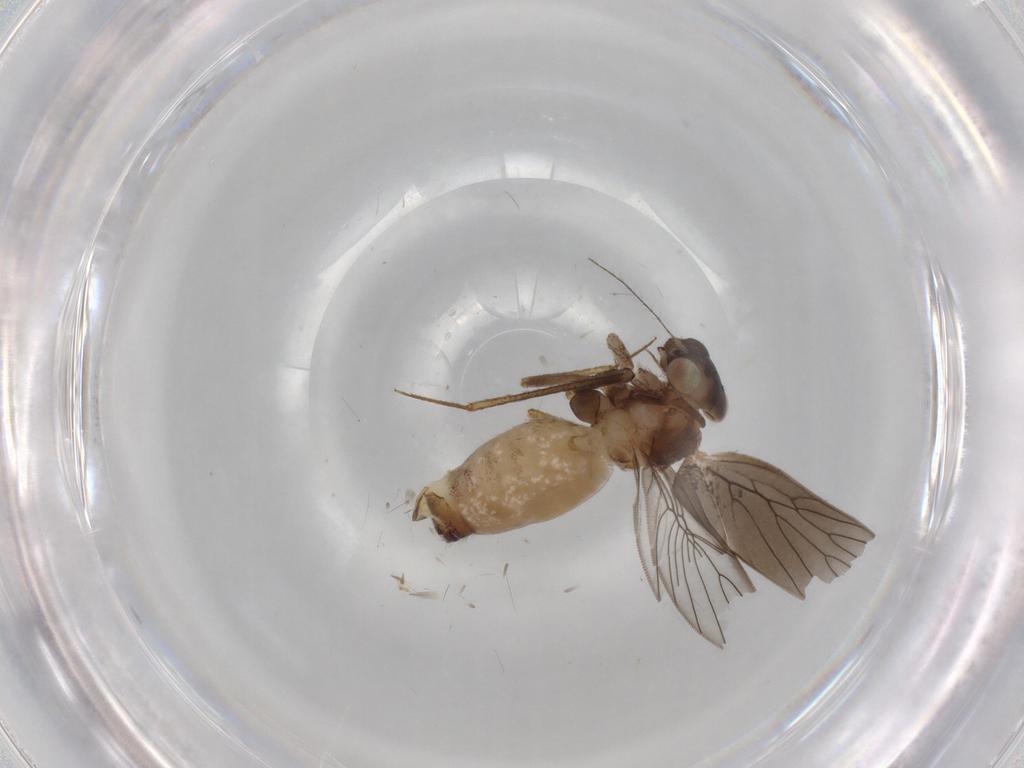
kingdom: Animalia
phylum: Arthropoda
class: Insecta
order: Psocodea
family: Lepidopsocidae
